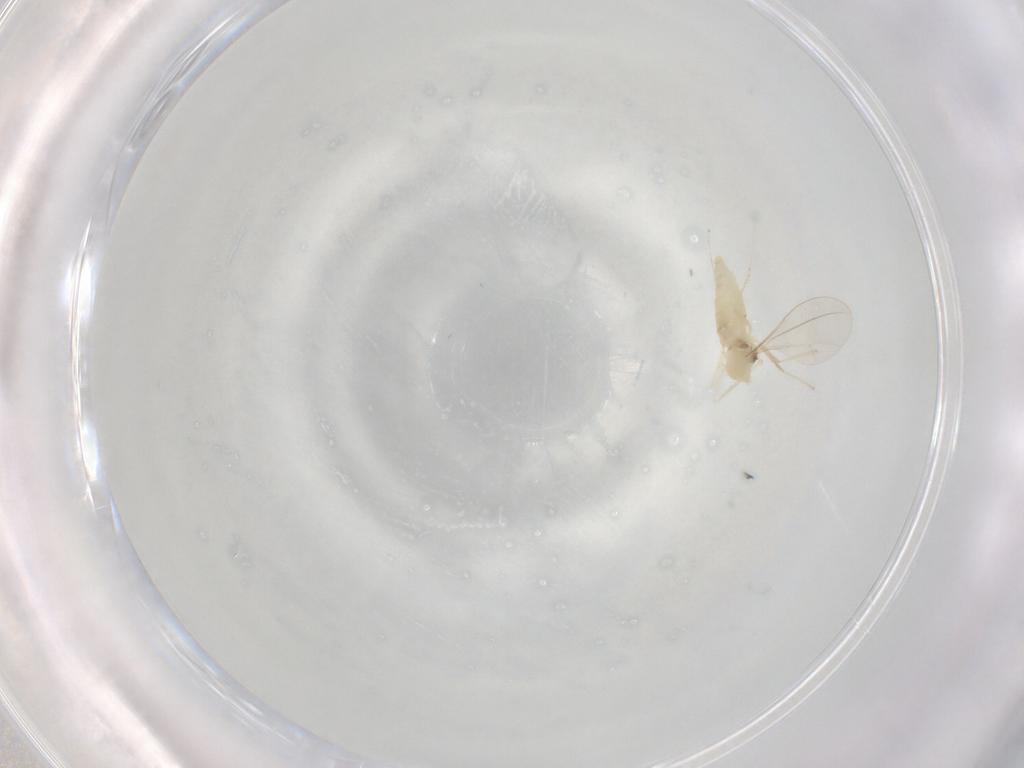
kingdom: Animalia
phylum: Arthropoda
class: Insecta
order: Diptera
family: Cecidomyiidae
